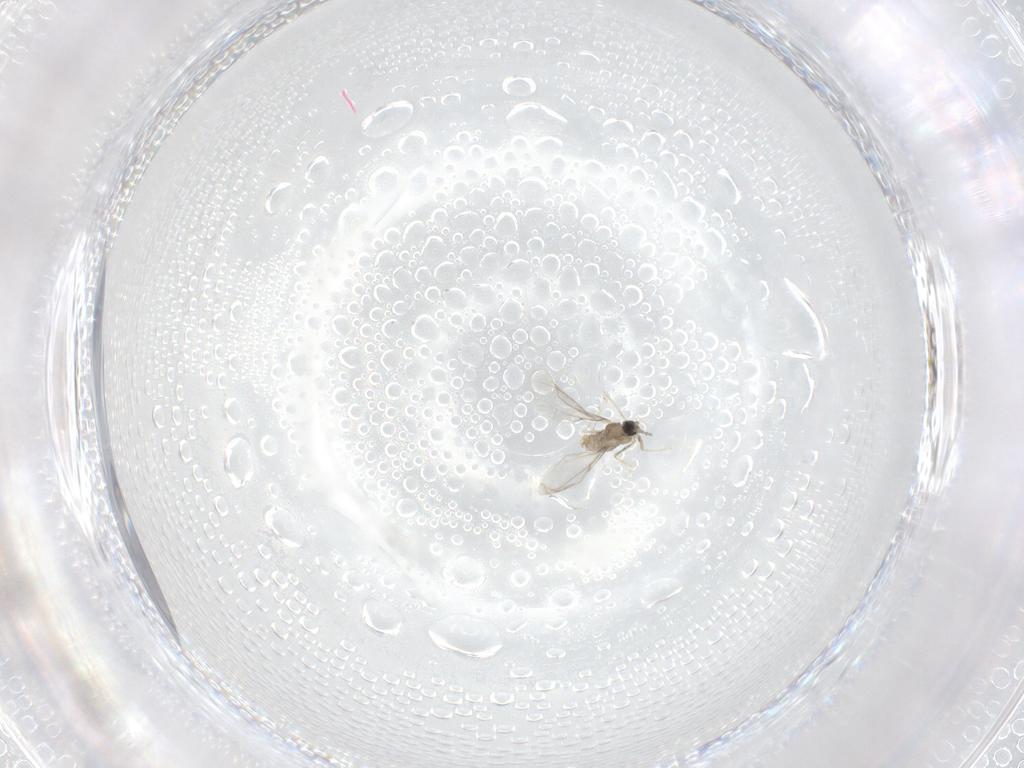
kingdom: Animalia
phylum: Arthropoda
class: Insecta
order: Diptera
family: Cecidomyiidae
